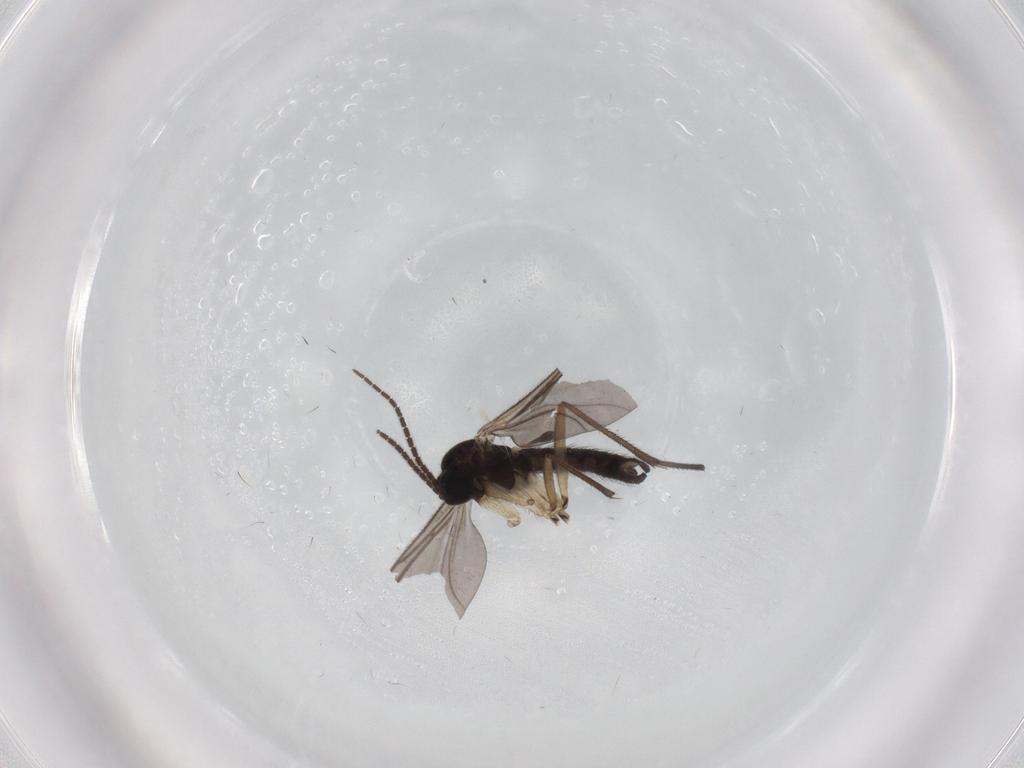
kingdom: Animalia
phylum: Arthropoda
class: Insecta
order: Diptera
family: Sciaridae
